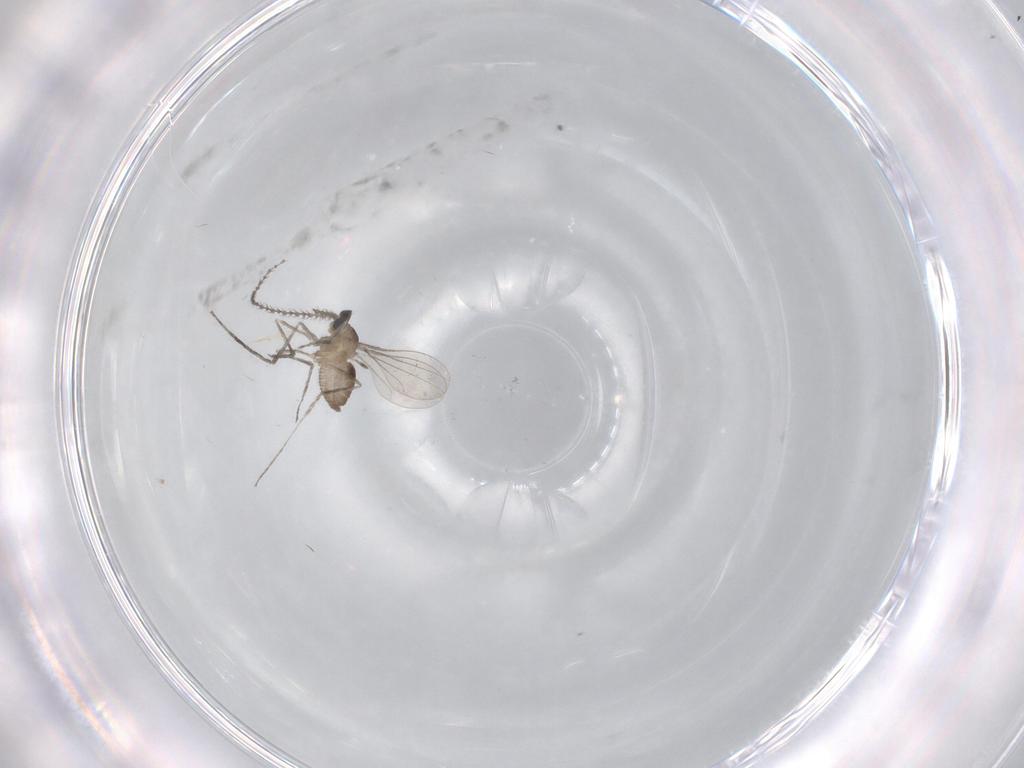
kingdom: Animalia
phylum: Arthropoda
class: Insecta
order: Diptera
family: Cecidomyiidae
